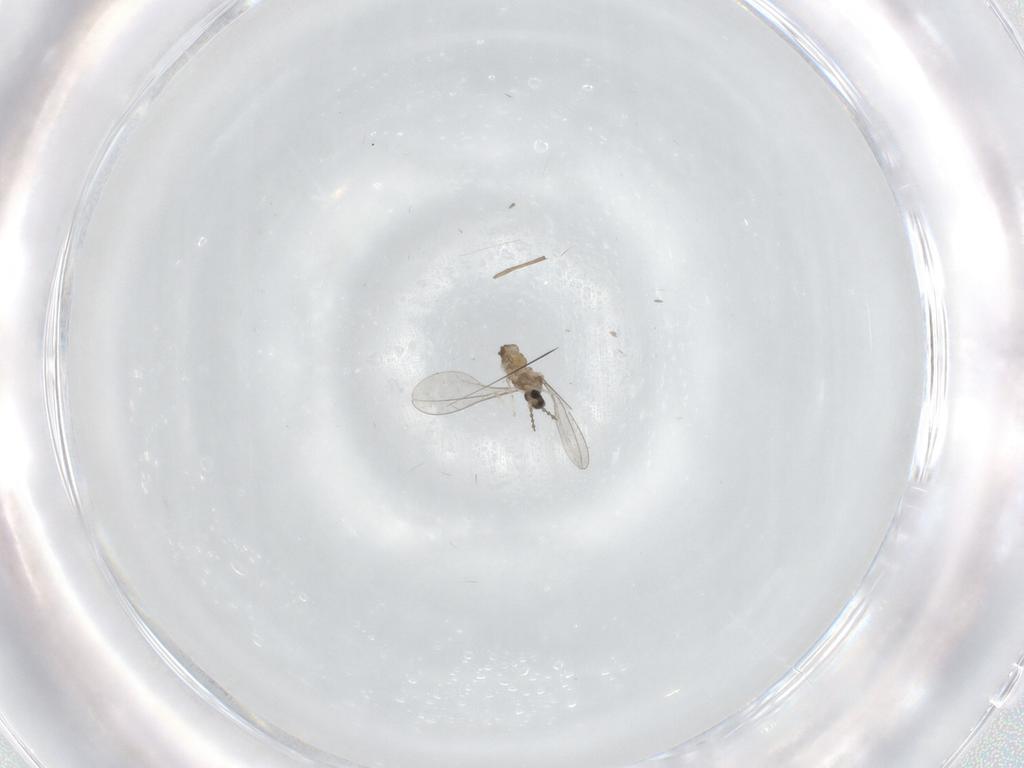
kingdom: Animalia
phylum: Arthropoda
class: Insecta
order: Diptera
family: Cecidomyiidae
